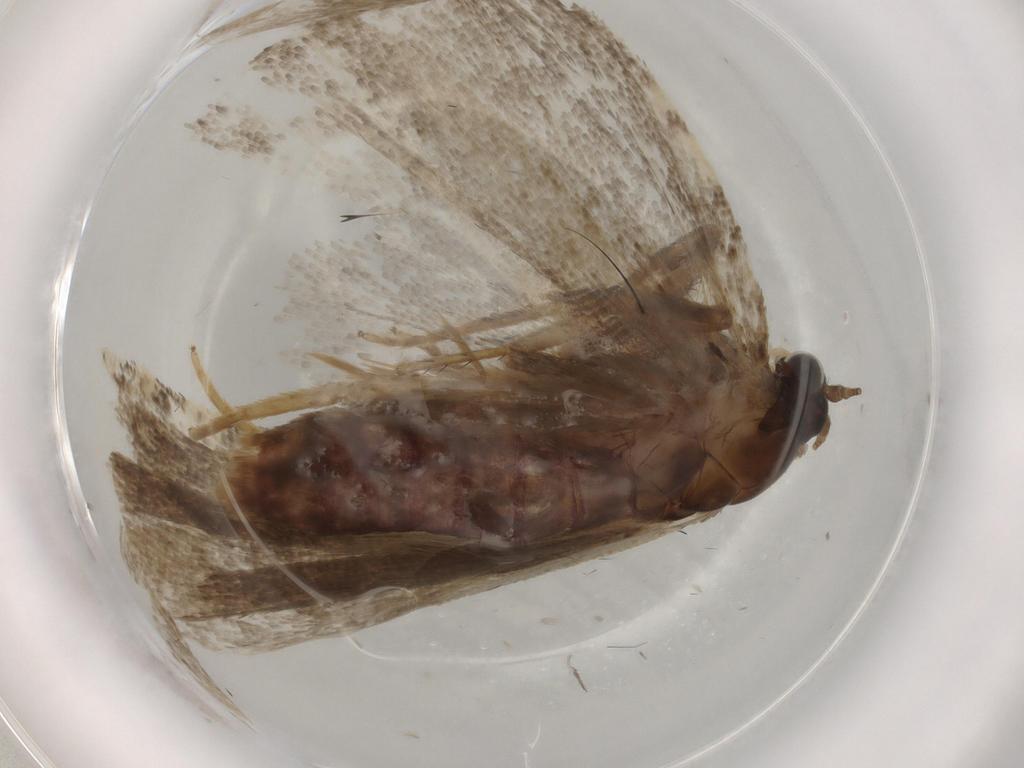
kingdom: Animalia
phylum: Arthropoda
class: Insecta
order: Lepidoptera
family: Tortricidae
